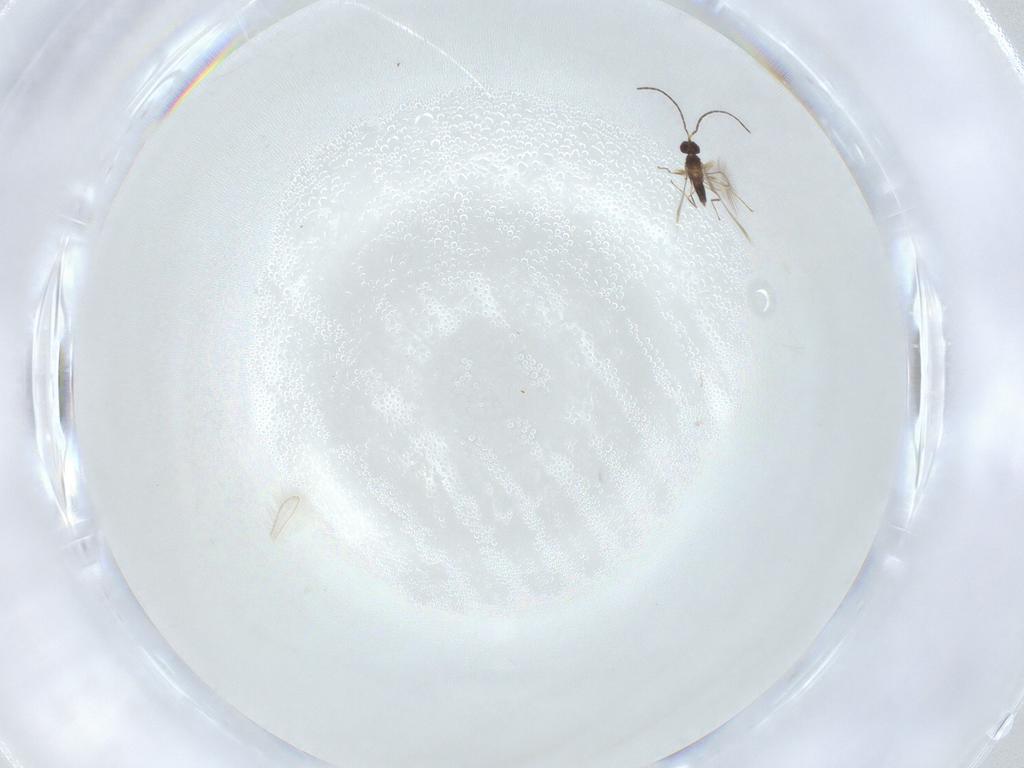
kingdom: Animalia
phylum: Arthropoda
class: Insecta
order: Hymenoptera
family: Mymaridae
